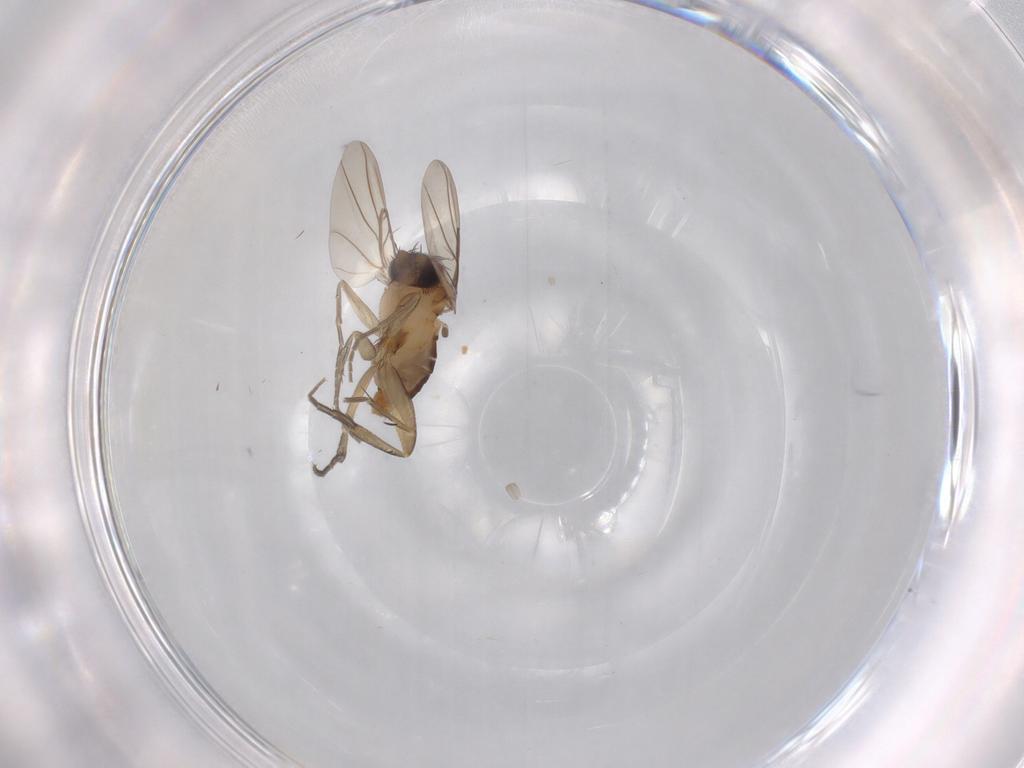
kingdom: Animalia
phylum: Arthropoda
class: Insecta
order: Diptera
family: Phoridae
